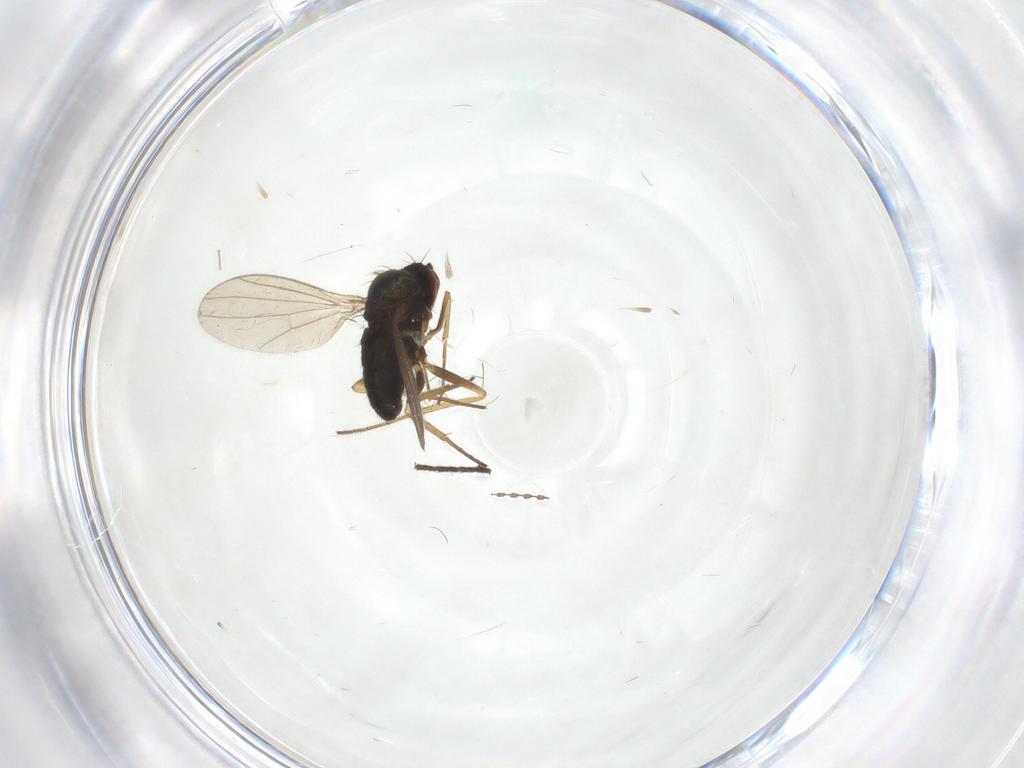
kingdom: Animalia
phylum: Arthropoda
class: Insecta
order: Diptera
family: Dolichopodidae
